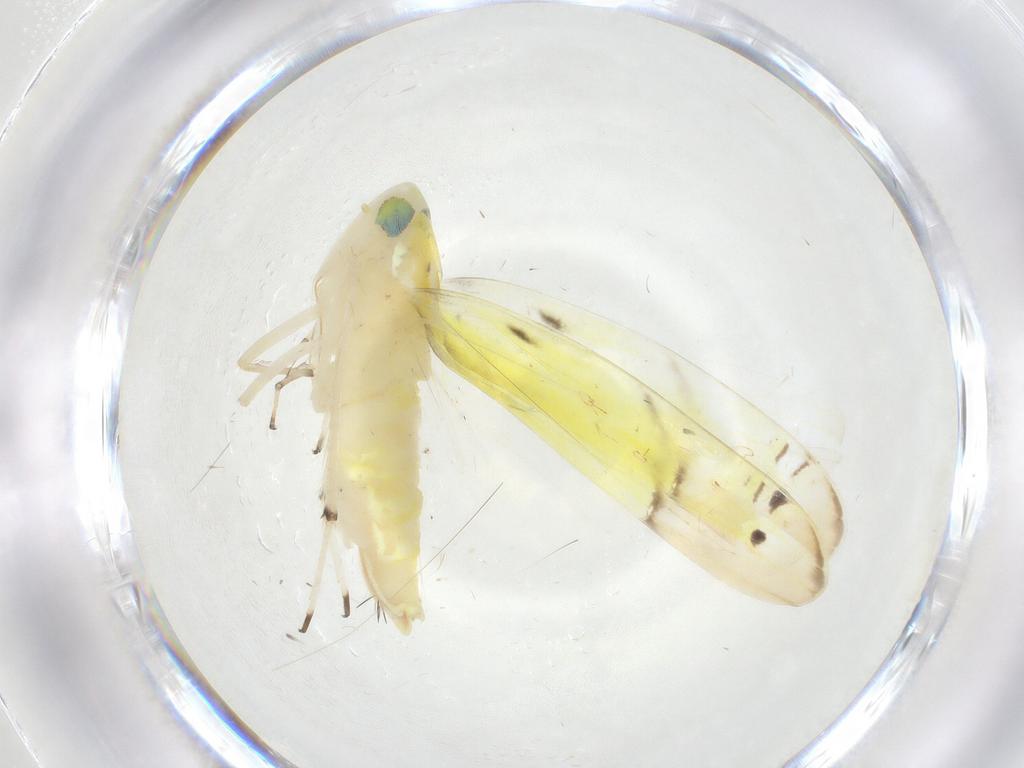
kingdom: Animalia
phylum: Arthropoda
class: Insecta
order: Hemiptera
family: Cicadellidae
